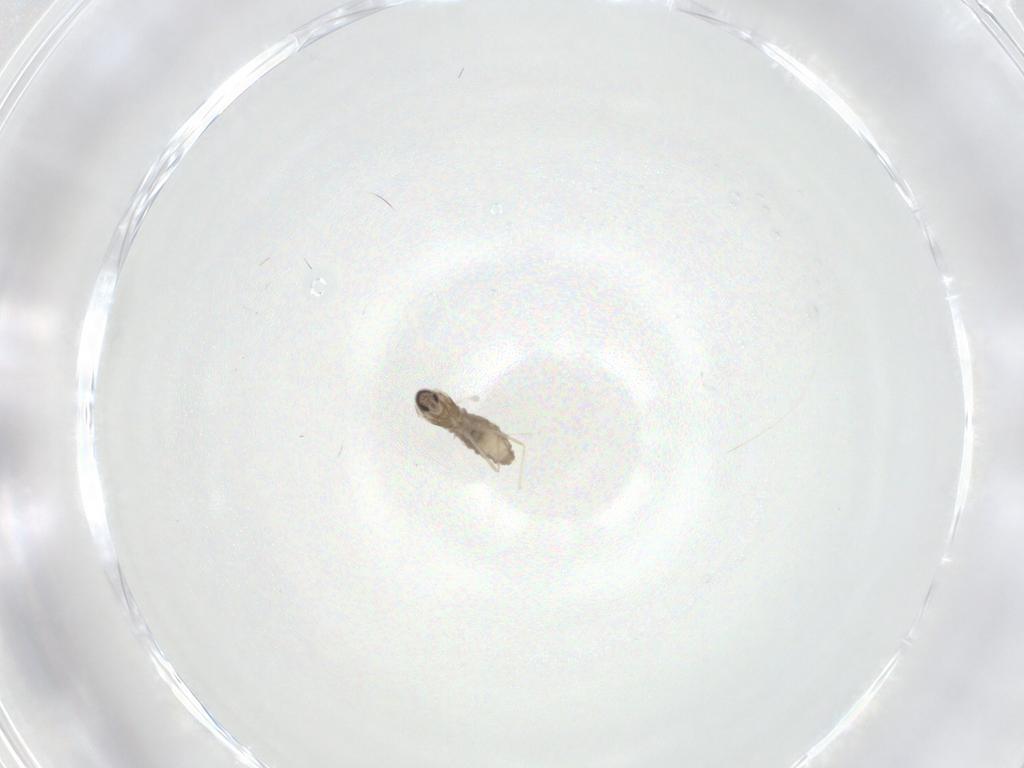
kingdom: Animalia
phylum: Arthropoda
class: Insecta
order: Diptera
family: Cecidomyiidae
